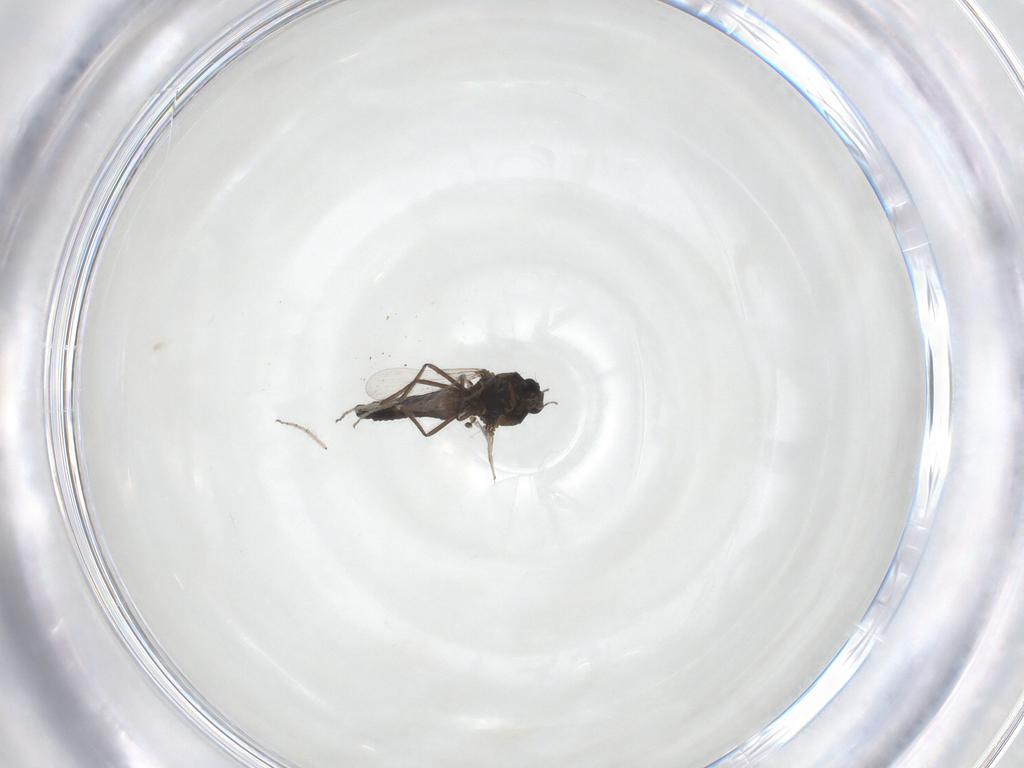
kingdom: Animalia
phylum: Arthropoda
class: Insecta
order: Diptera
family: Ceratopogonidae
